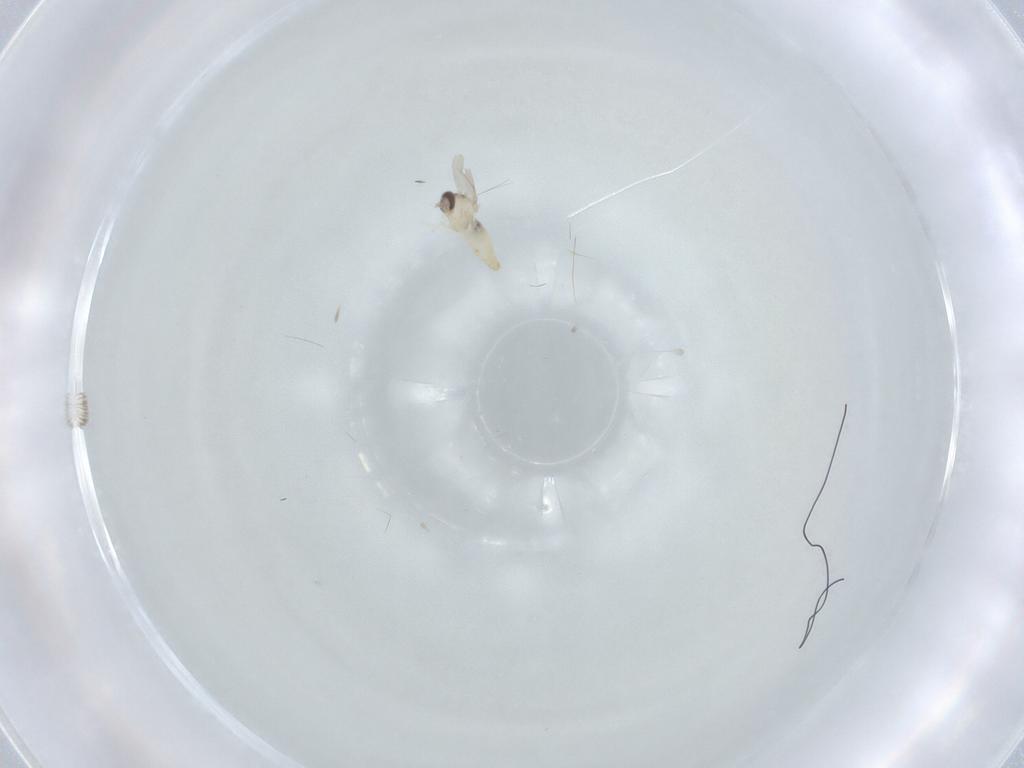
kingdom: Animalia
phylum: Arthropoda
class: Insecta
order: Diptera
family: Cecidomyiidae
